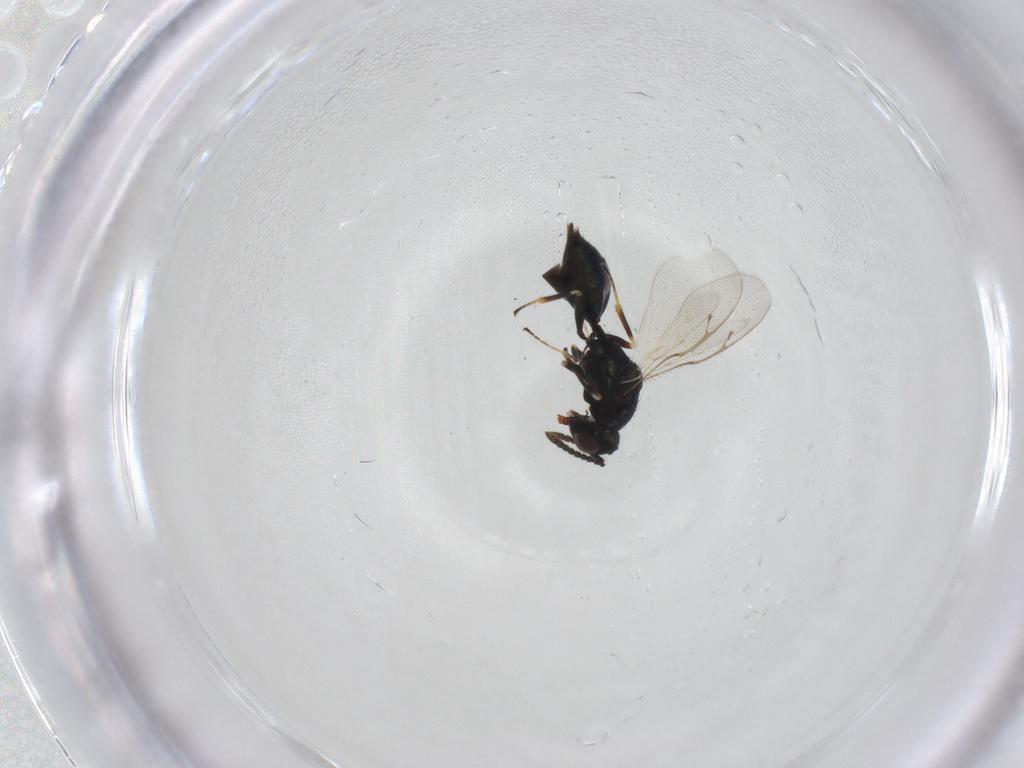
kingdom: Animalia
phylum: Arthropoda
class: Insecta
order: Hymenoptera
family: Pteromalidae
